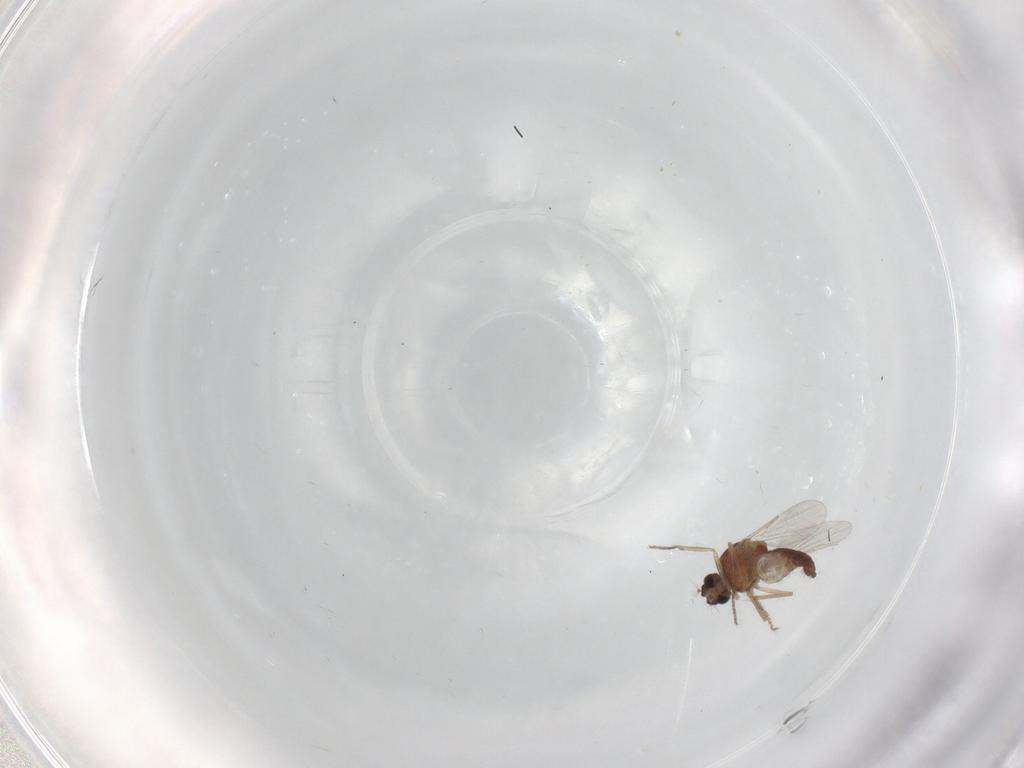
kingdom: Animalia
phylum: Arthropoda
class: Insecta
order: Diptera
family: Ceratopogonidae
